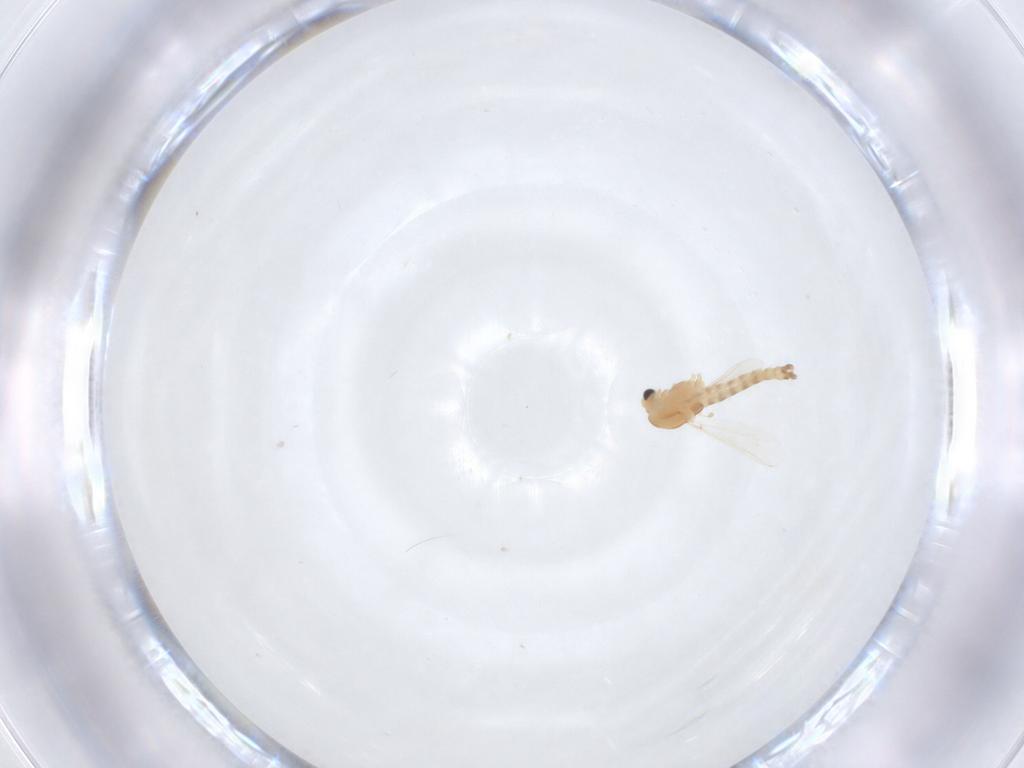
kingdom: Animalia
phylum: Arthropoda
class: Insecta
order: Diptera
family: Chironomidae
